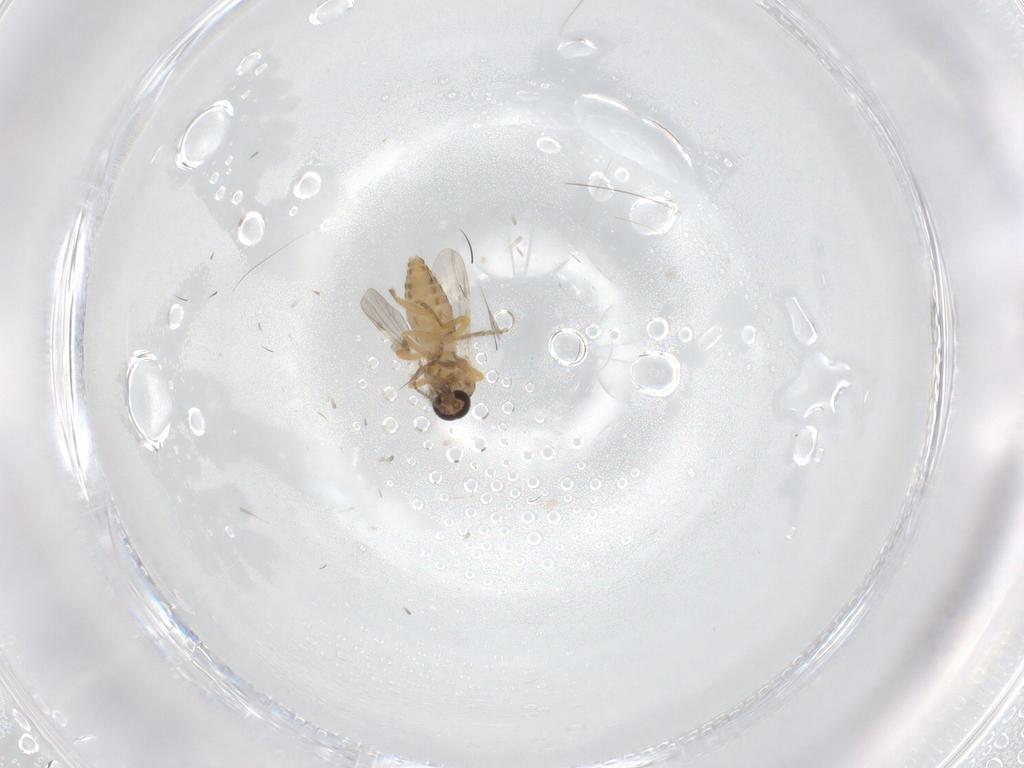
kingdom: Animalia
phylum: Arthropoda
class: Insecta
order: Diptera
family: Ceratopogonidae
